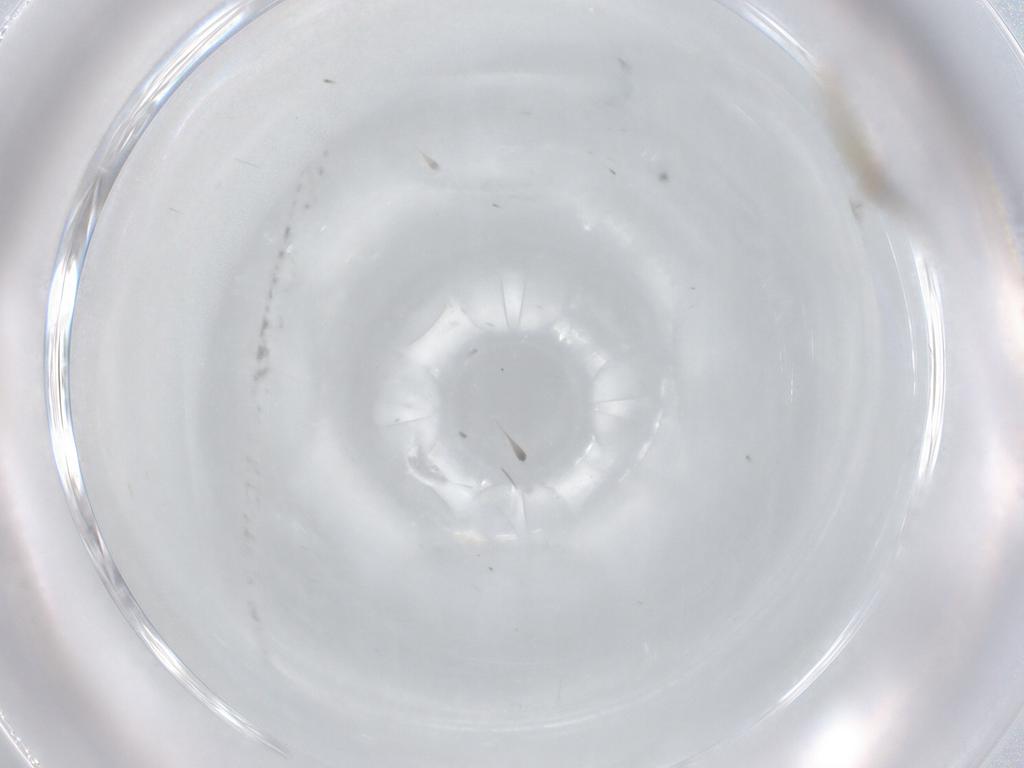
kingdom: Animalia
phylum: Arthropoda
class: Insecta
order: Diptera
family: Cecidomyiidae
